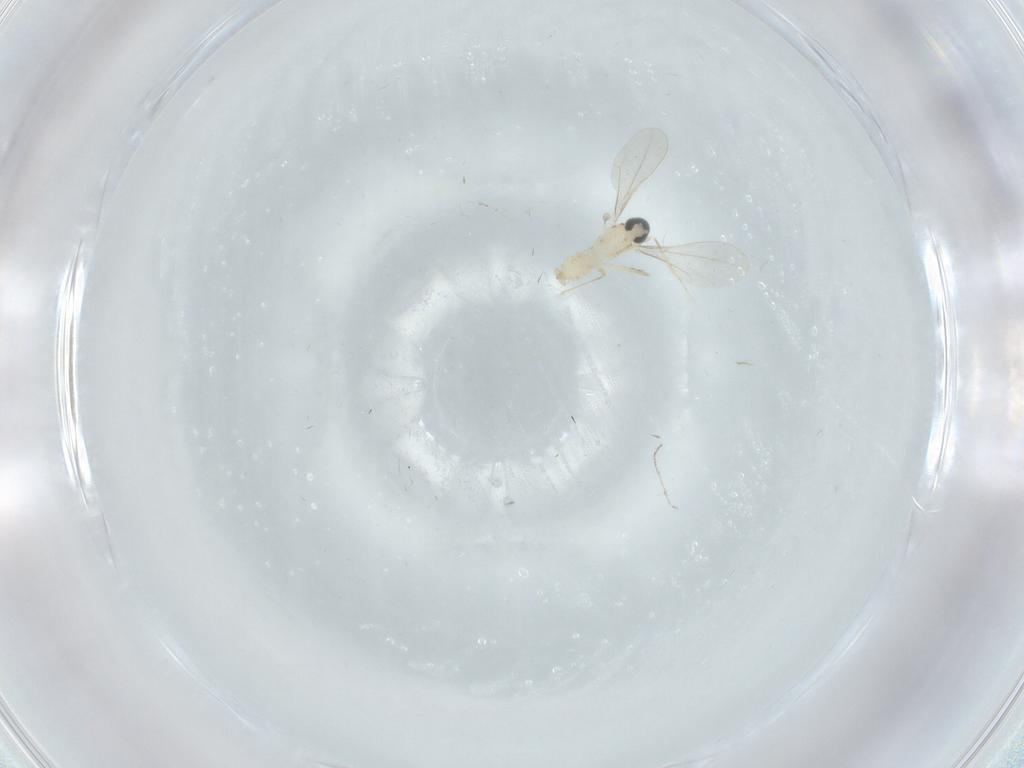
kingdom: Animalia
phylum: Arthropoda
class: Insecta
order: Diptera
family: Cecidomyiidae
